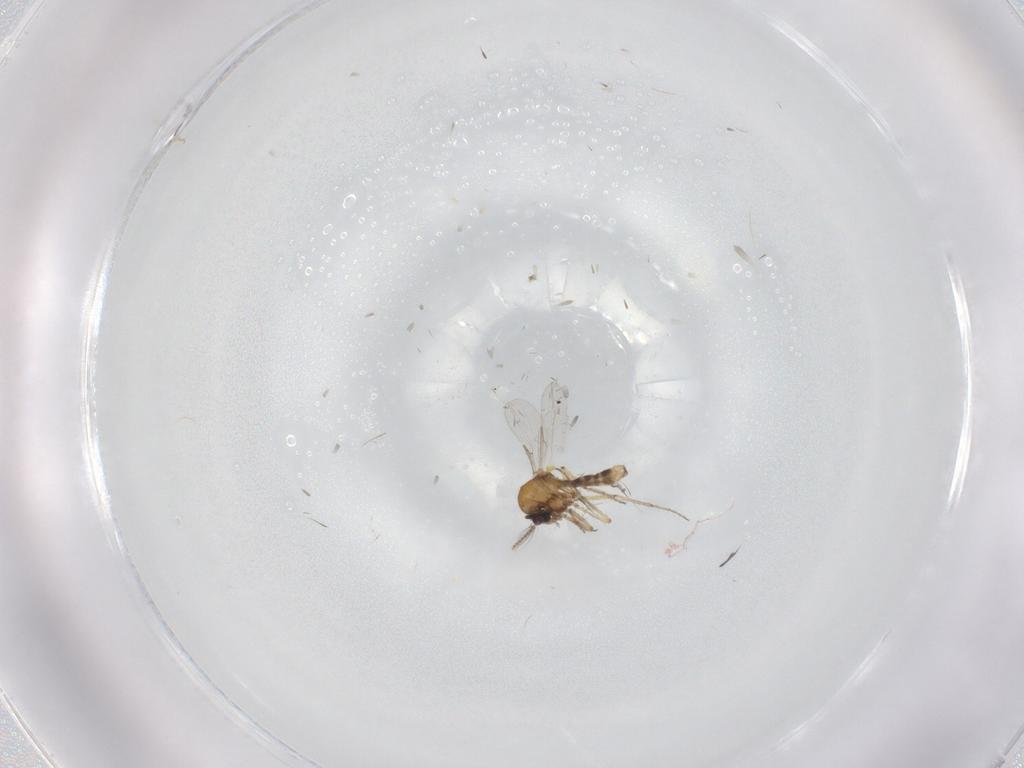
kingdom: Animalia
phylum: Arthropoda
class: Insecta
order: Diptera
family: Ceratopogonidae
